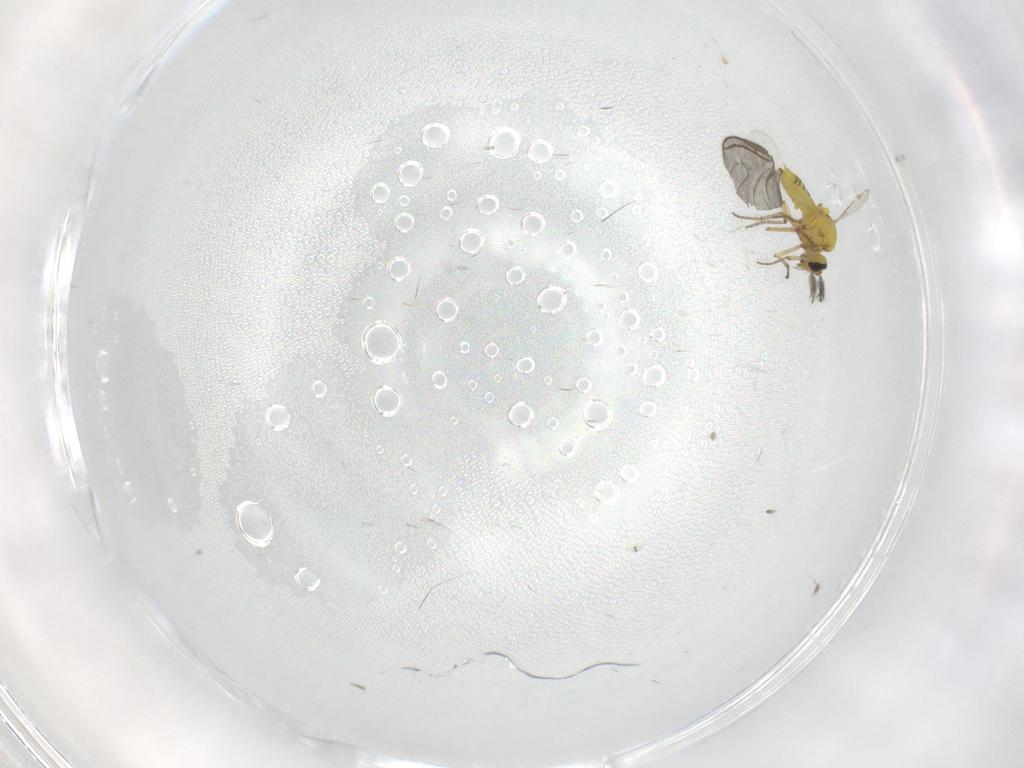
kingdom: Animalia
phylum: Arthropoda
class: Insecta
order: Diptera
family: Ceratopogonidae
